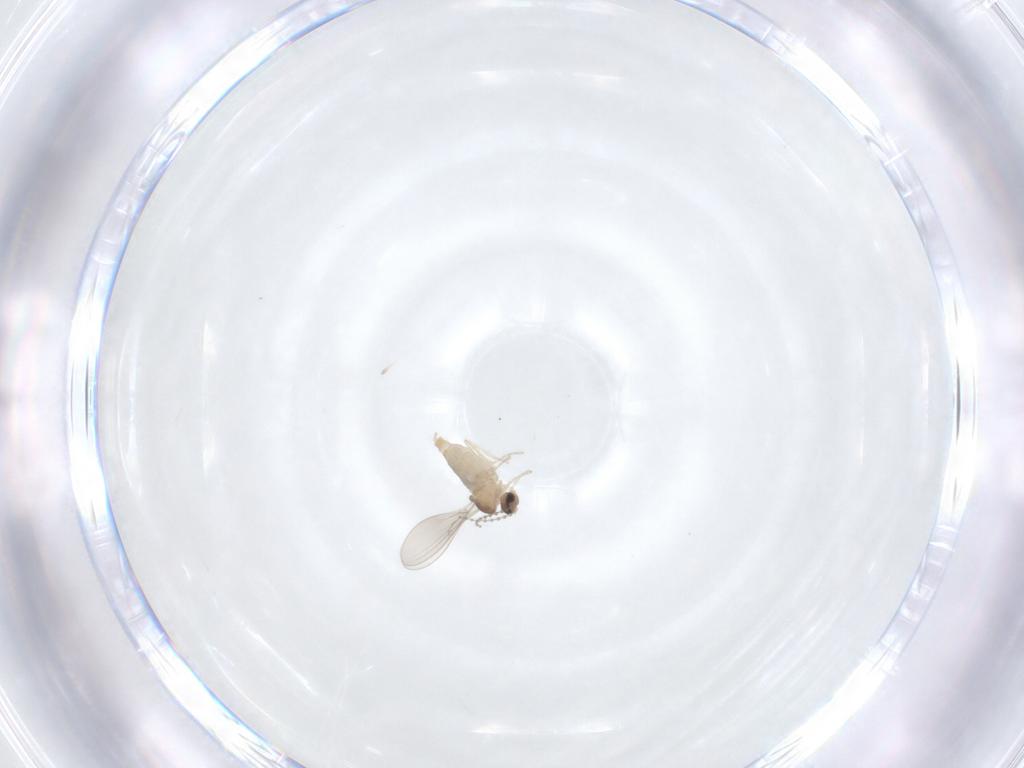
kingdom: Animalia
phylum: Arthropoda
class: Insecta
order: Diptera
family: Cecidomyiidae
